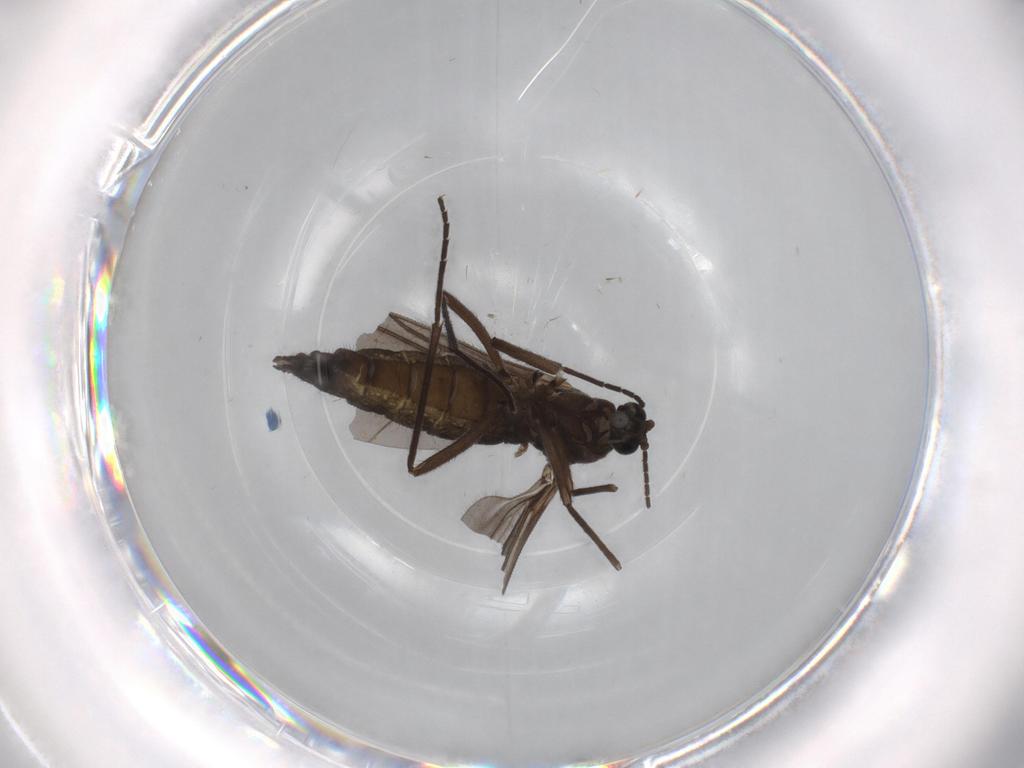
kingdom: Animalia
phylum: Arthropoda
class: Insecta
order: Diptera
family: Sciaridae
